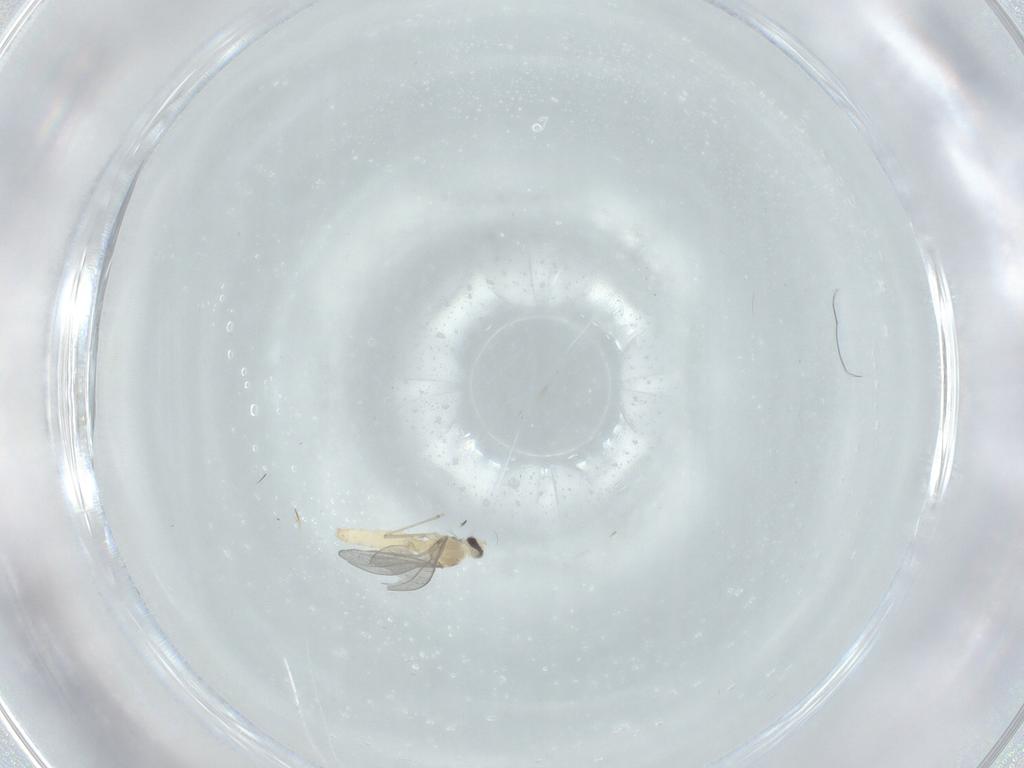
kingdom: Animalia
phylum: Arthropoda
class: Insecta
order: Diptera
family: Cecidomyiidae
